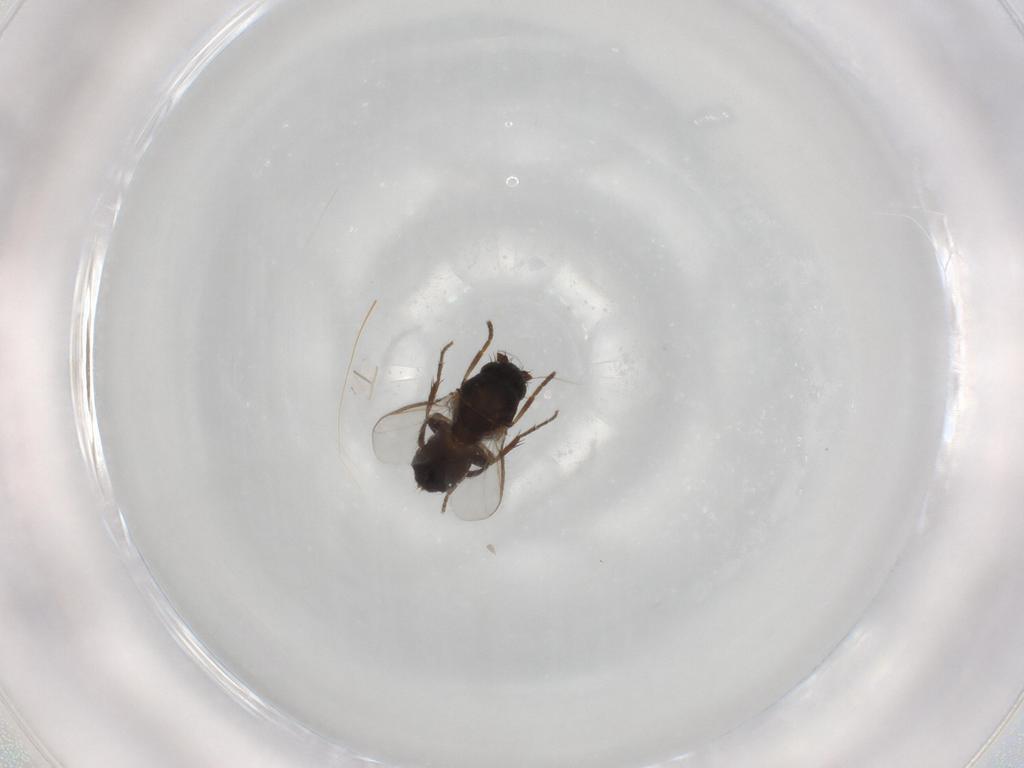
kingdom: Animalia
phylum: Arthropoda
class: Insecta
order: Diptera
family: Sphaeroceridae
